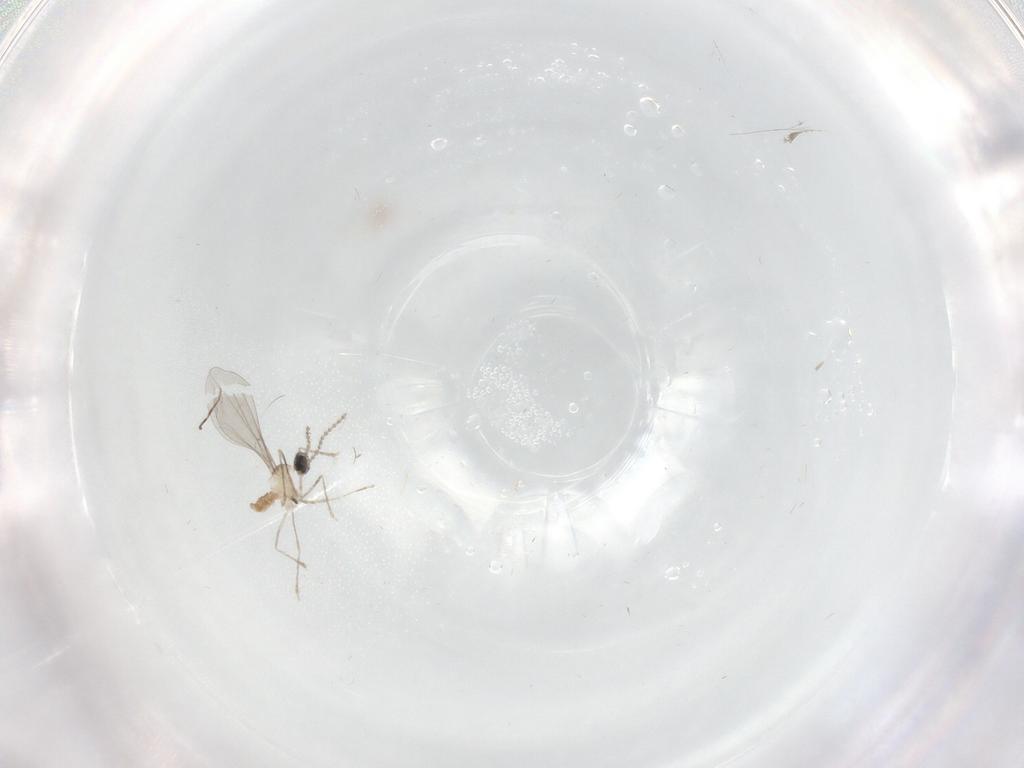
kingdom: Animalia
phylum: Arthropoda
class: Insecta
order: Diptera
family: Cecidomyiidae
